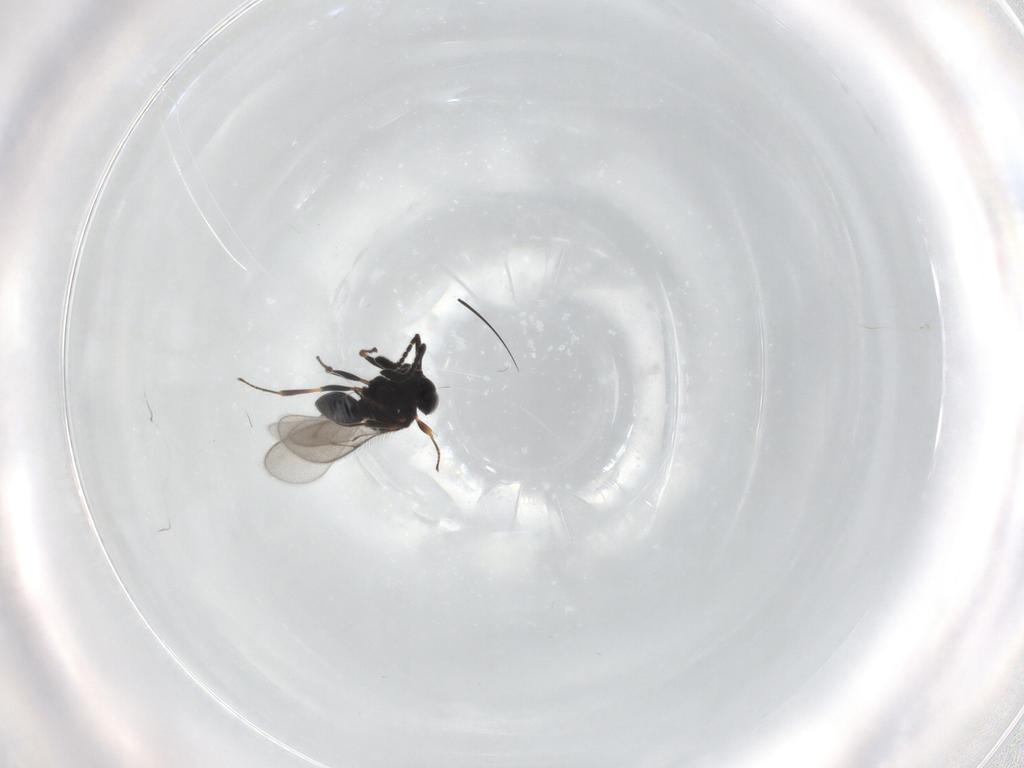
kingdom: Animalia
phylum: Arthropoda
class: Insecta
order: Hymenoptera
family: Scelionidae
